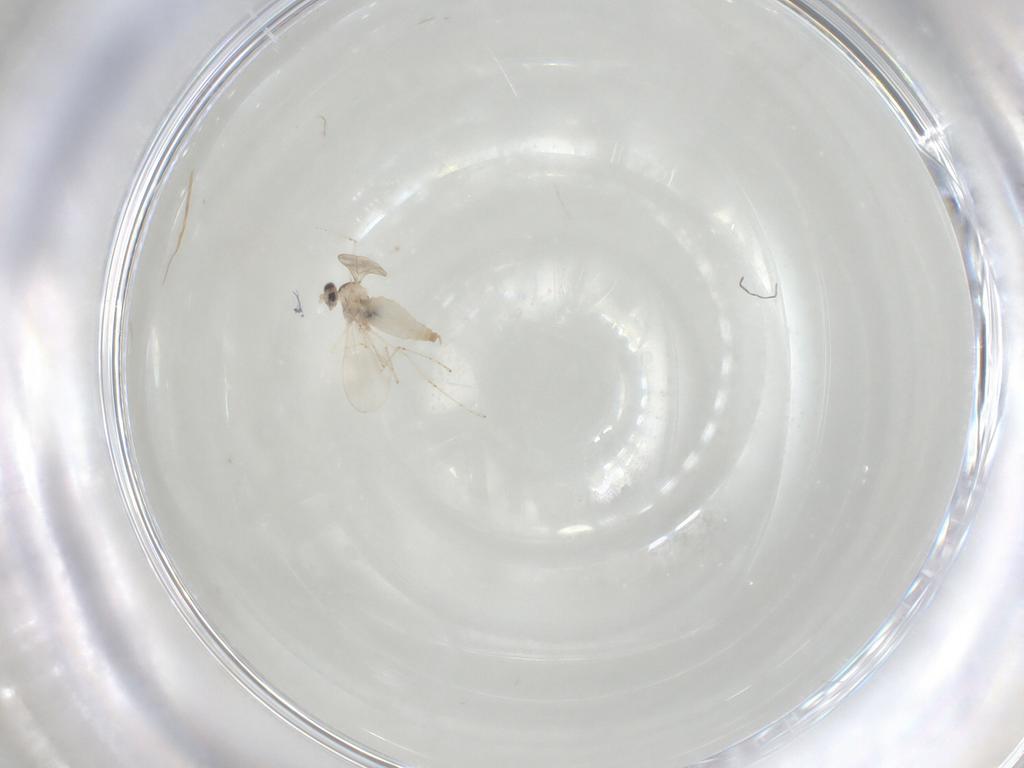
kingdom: Animalia
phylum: Arthropoda
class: Insecta
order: Diptera
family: Cecidomyiidae
